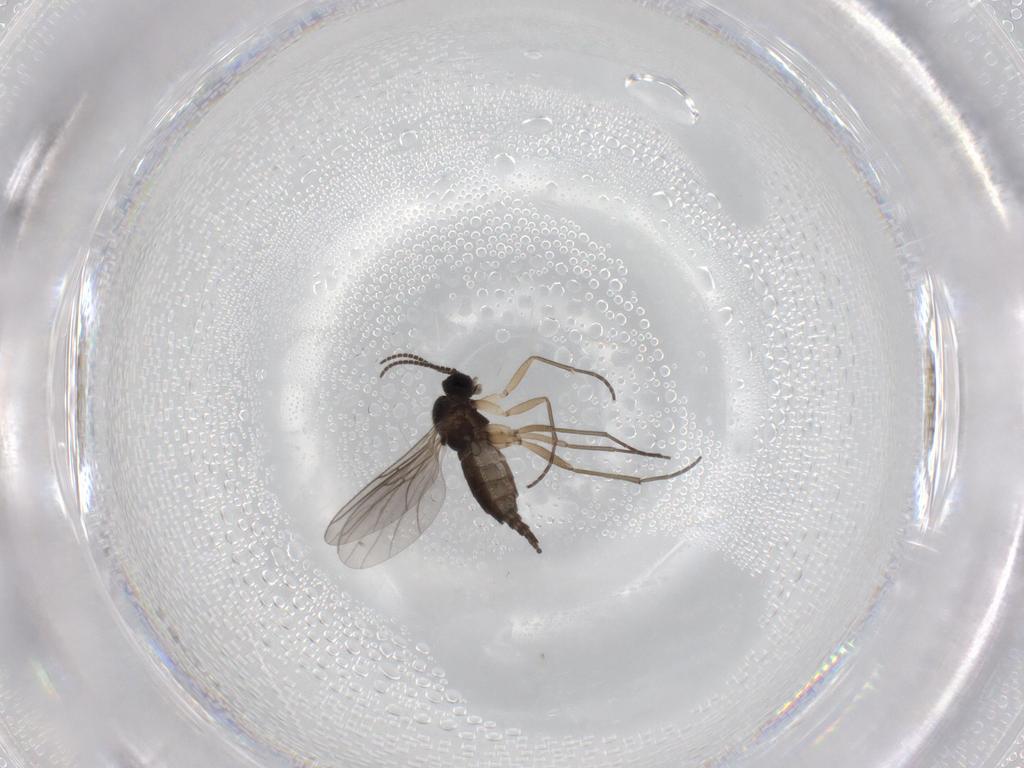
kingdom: Animalia
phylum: Arthropoda
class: Insecta
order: Diptera
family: Sciaridae
